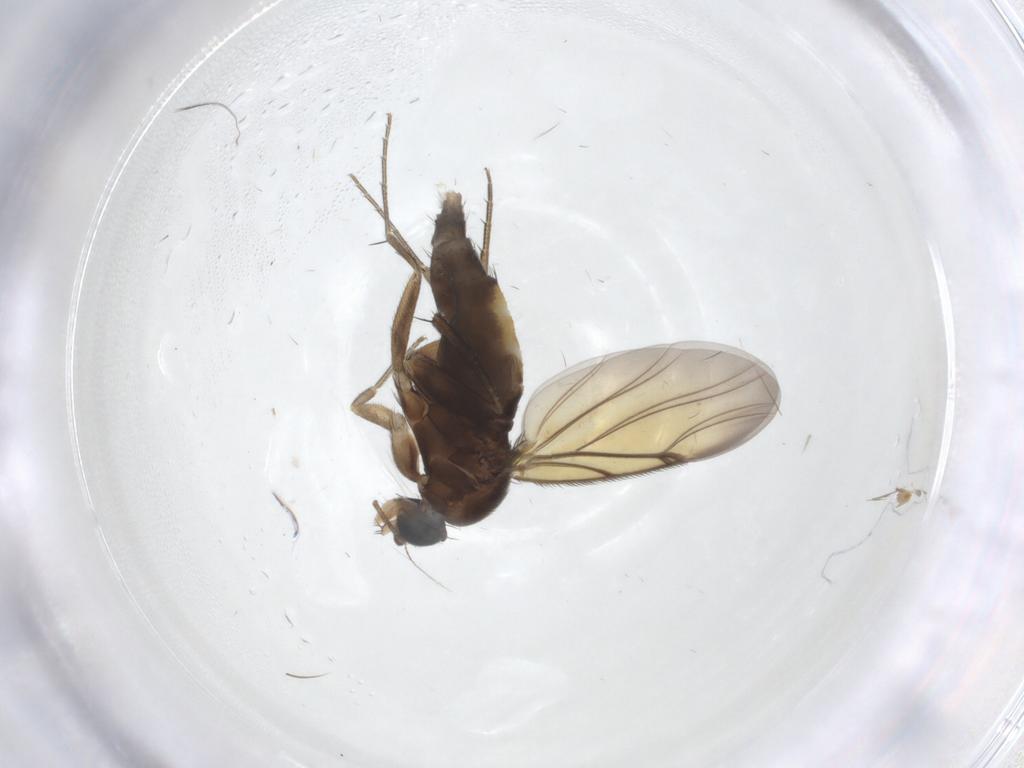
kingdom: Animalia
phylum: Arthropoda
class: Insecta
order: Diptera
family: Phoridae
